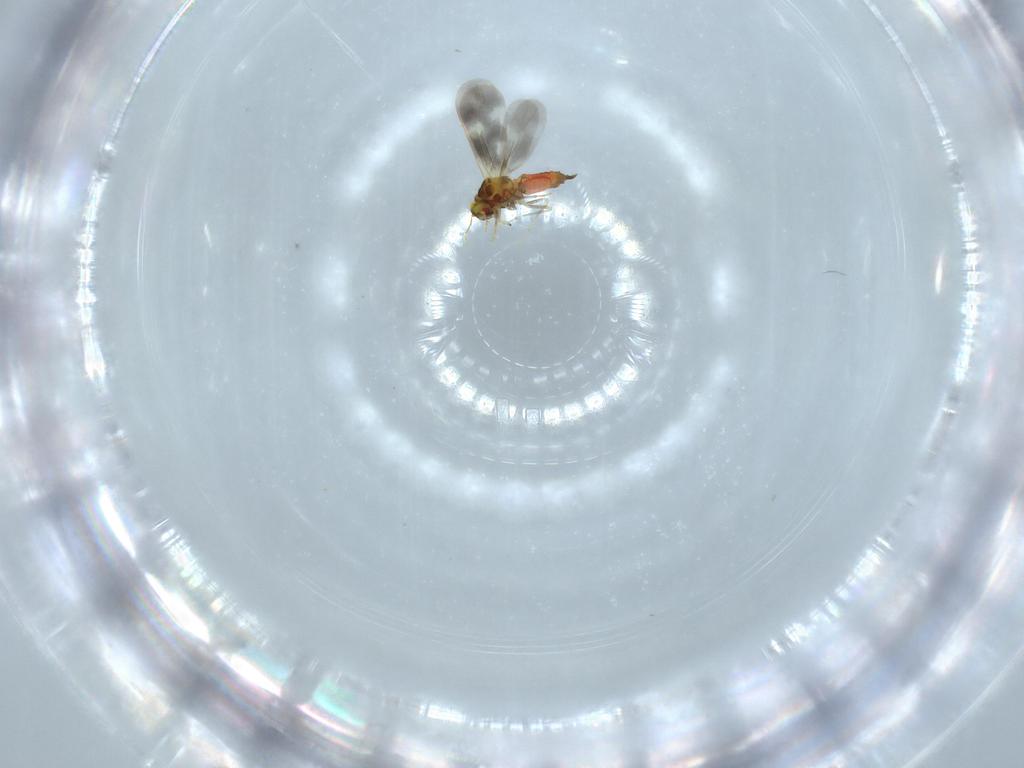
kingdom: Animalia
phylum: Arthropoda
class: Insecta
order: Hemiptera
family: Aleyrodidae
